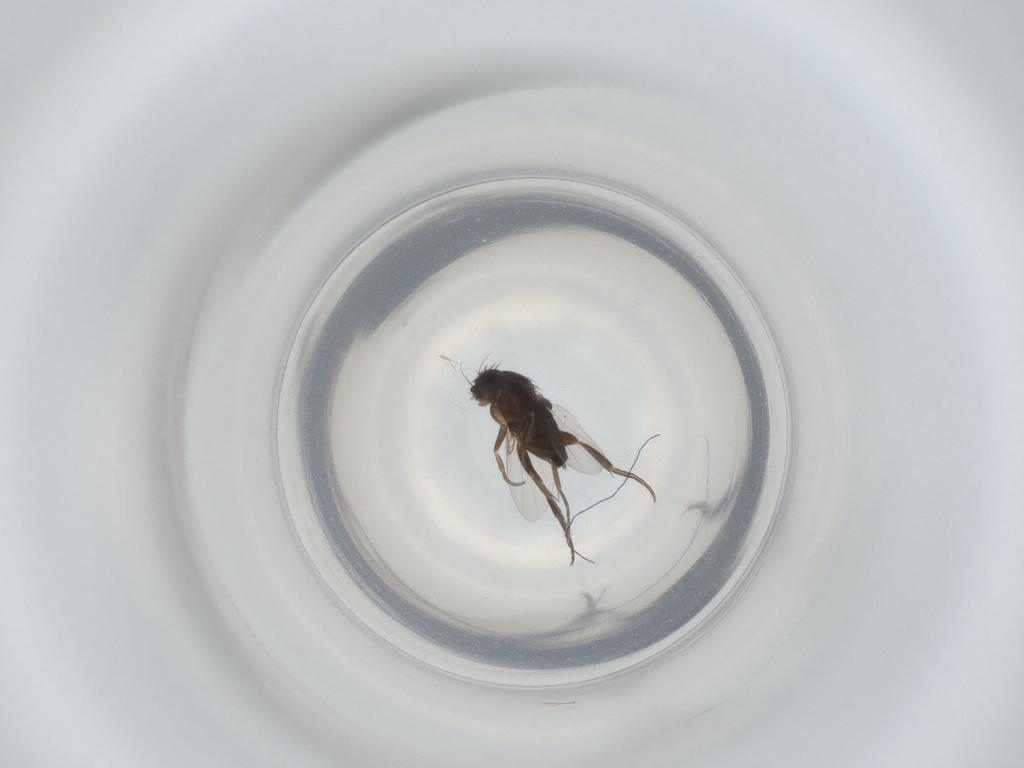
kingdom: Animalia
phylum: Arthropoda
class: Insecta
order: Diptera
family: Phoridae
